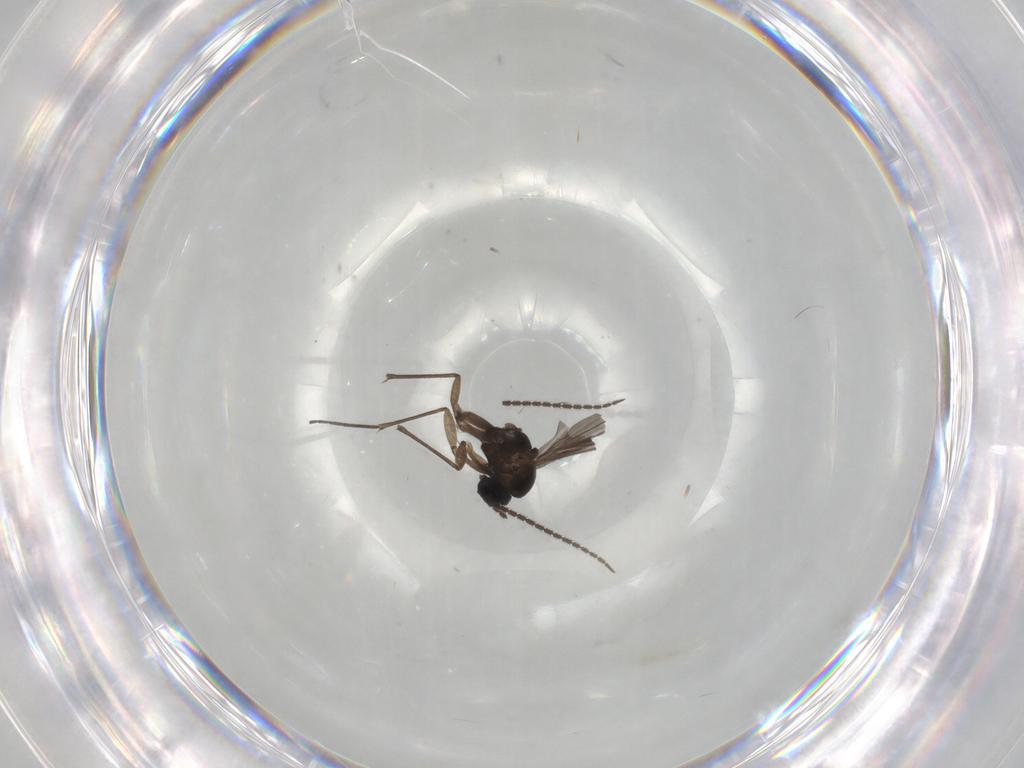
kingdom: Animalia
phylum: Arthropoda
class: Insecta
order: Diptera
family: Sciaridae
